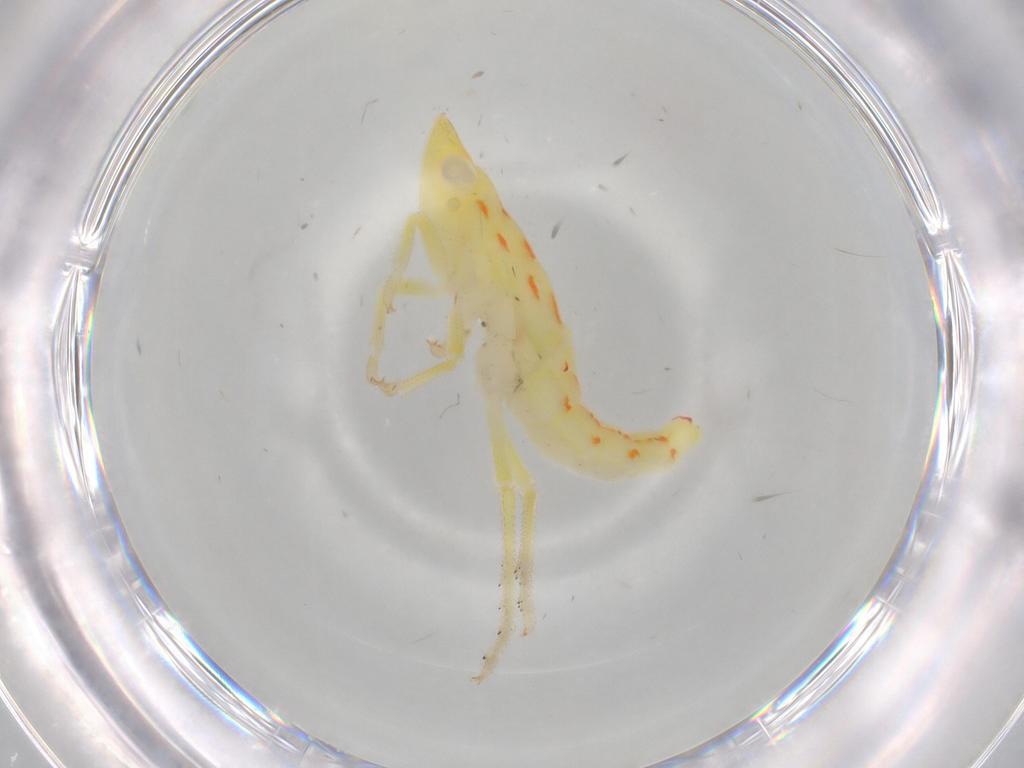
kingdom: Animalia
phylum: Arthropoda
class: Insecta
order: Hemiptera
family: Tropiduchidae
